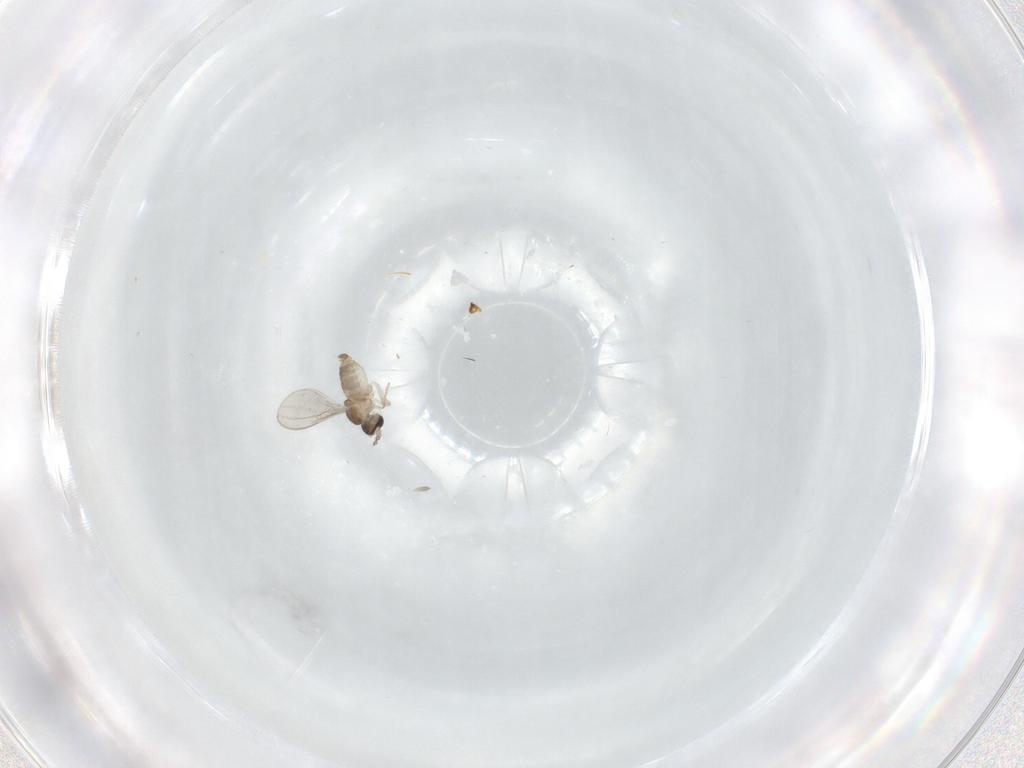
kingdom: Animalia
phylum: Arthropoda
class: Insecta
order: Diptera
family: Cecidomyiidae
